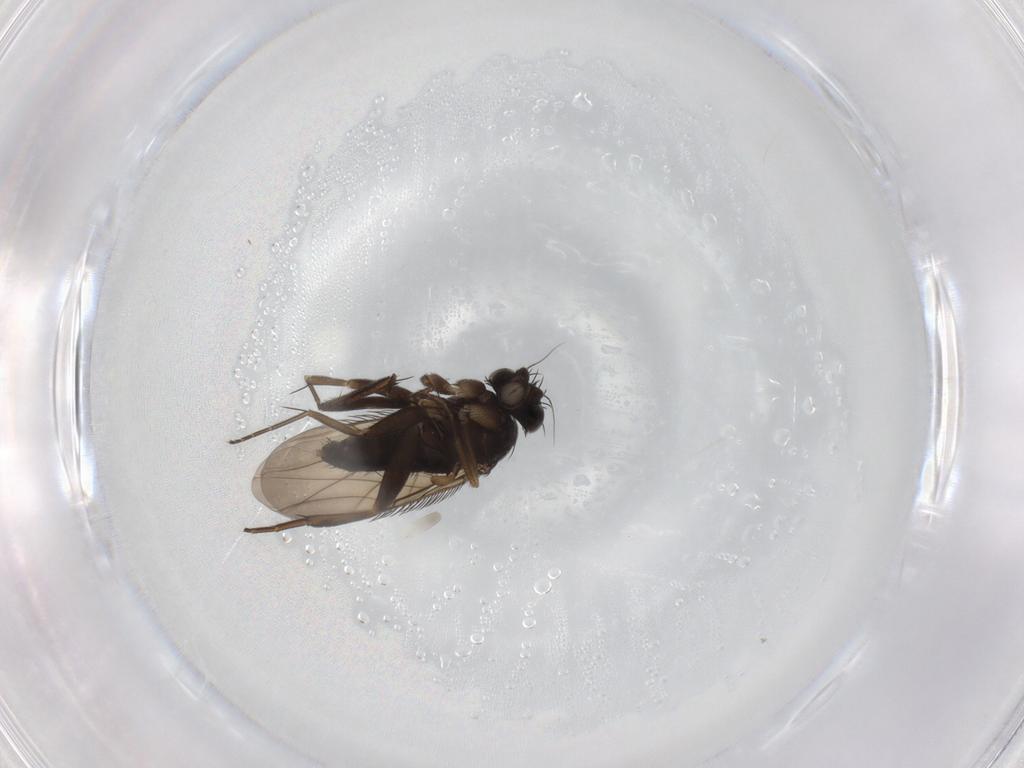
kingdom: Animalia
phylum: Arthropoda
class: Insecta
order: Diptera
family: Phoridae
